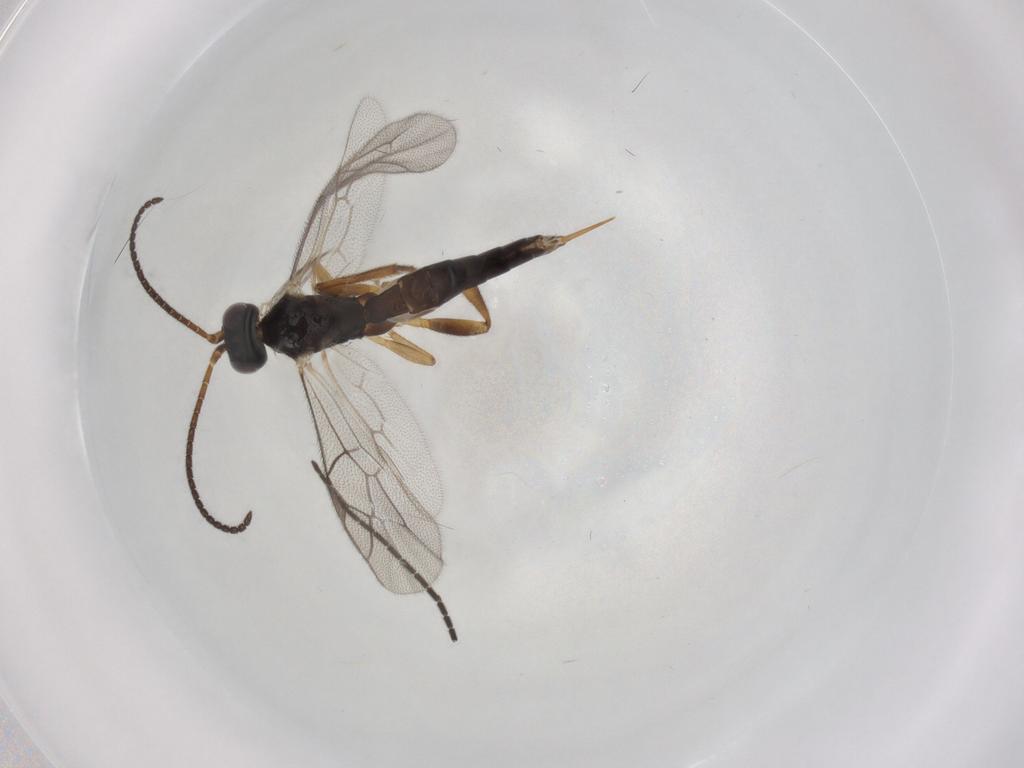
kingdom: Animalia
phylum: Arthropoda
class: Insecta
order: Hymenoptera
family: Ichneumonidae
